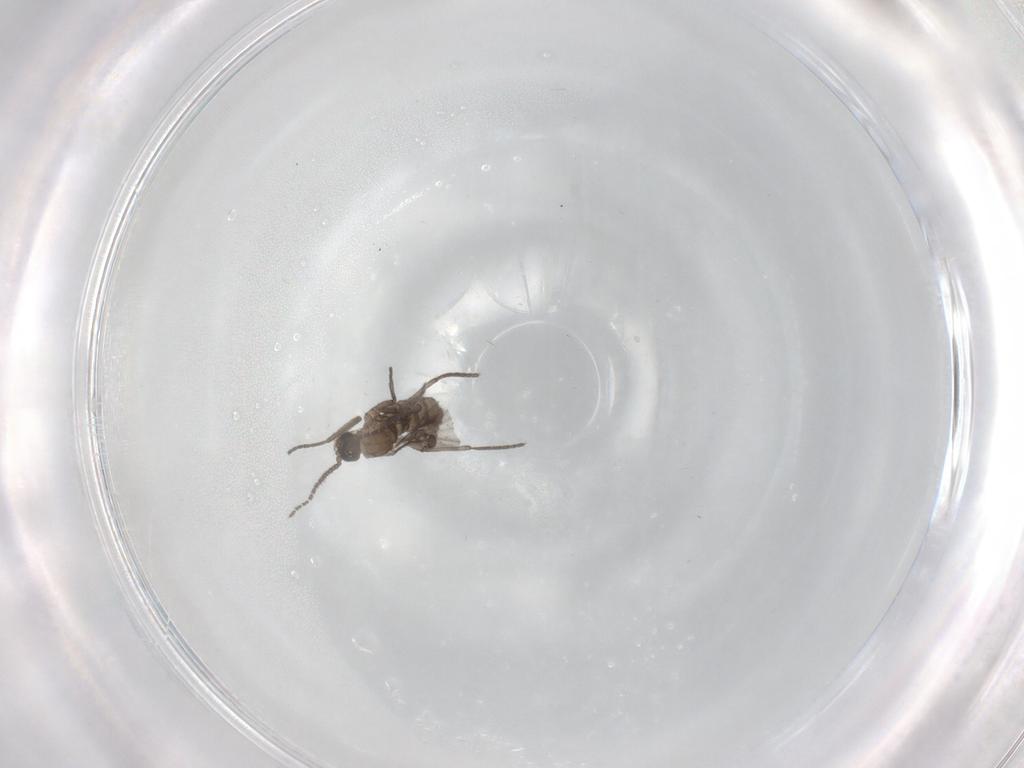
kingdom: Animalia
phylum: Arthropoda
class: Insecta
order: Diptera
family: Sciaridae
